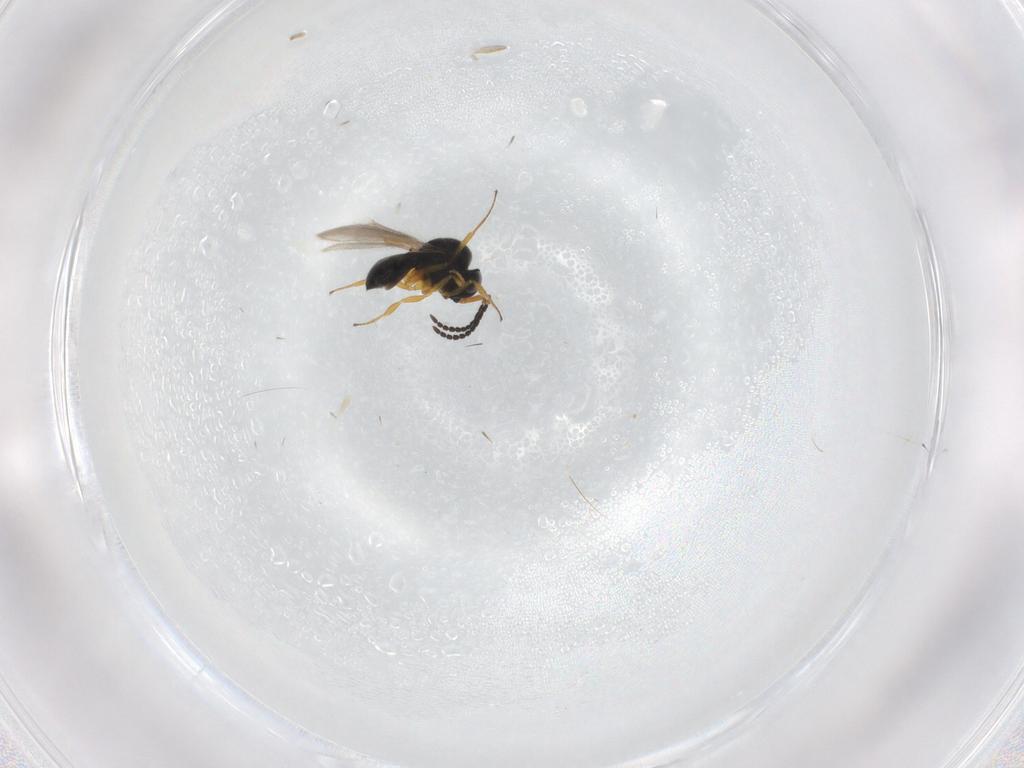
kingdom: Animalia
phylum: Arthropoda
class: Insecta
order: Hymenoptera
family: Scelionidae
